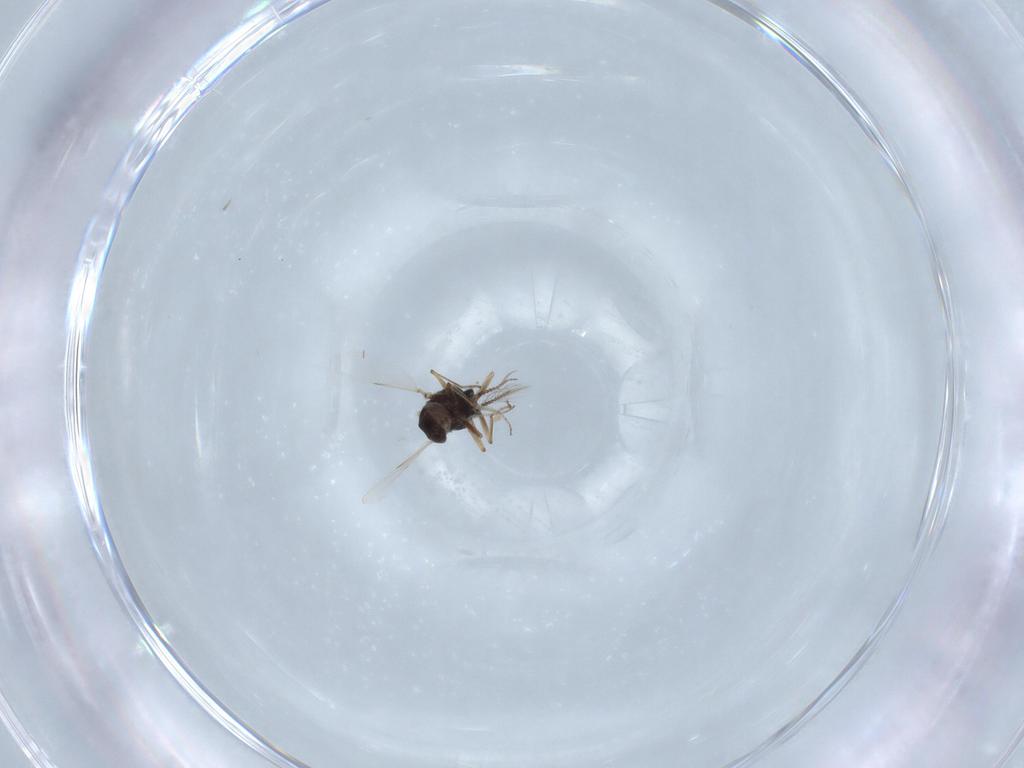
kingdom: Animalia
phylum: Arthropoda
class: Insecta
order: Diptera
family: Ceratopogonidae
